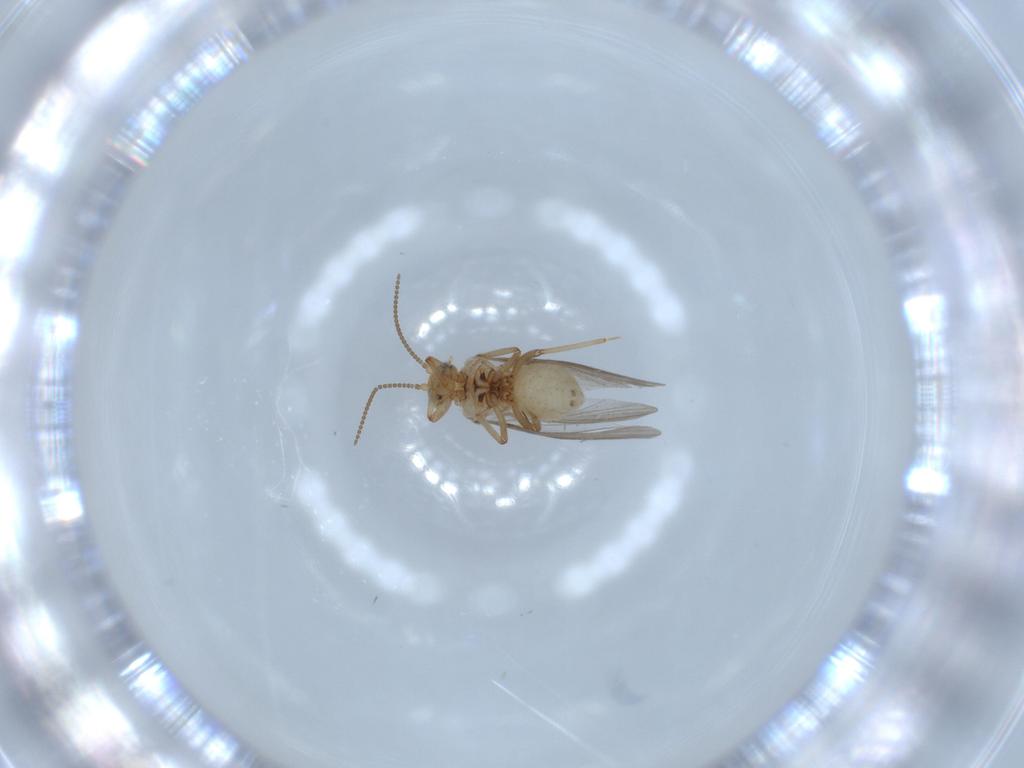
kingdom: Animalia
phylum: Arthropoda
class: Insecta
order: Neuroptera
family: Coniopterygidae
